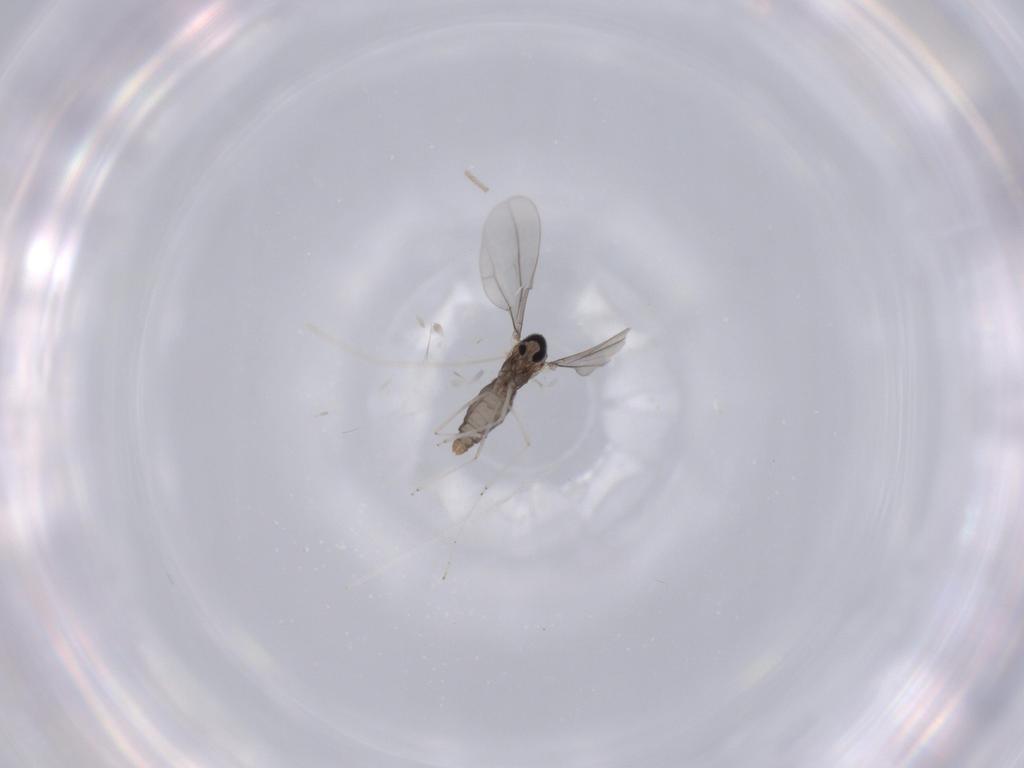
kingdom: Animalia
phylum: Arthropoda
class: Insecta
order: Diptera
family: Cecidomyiidae
